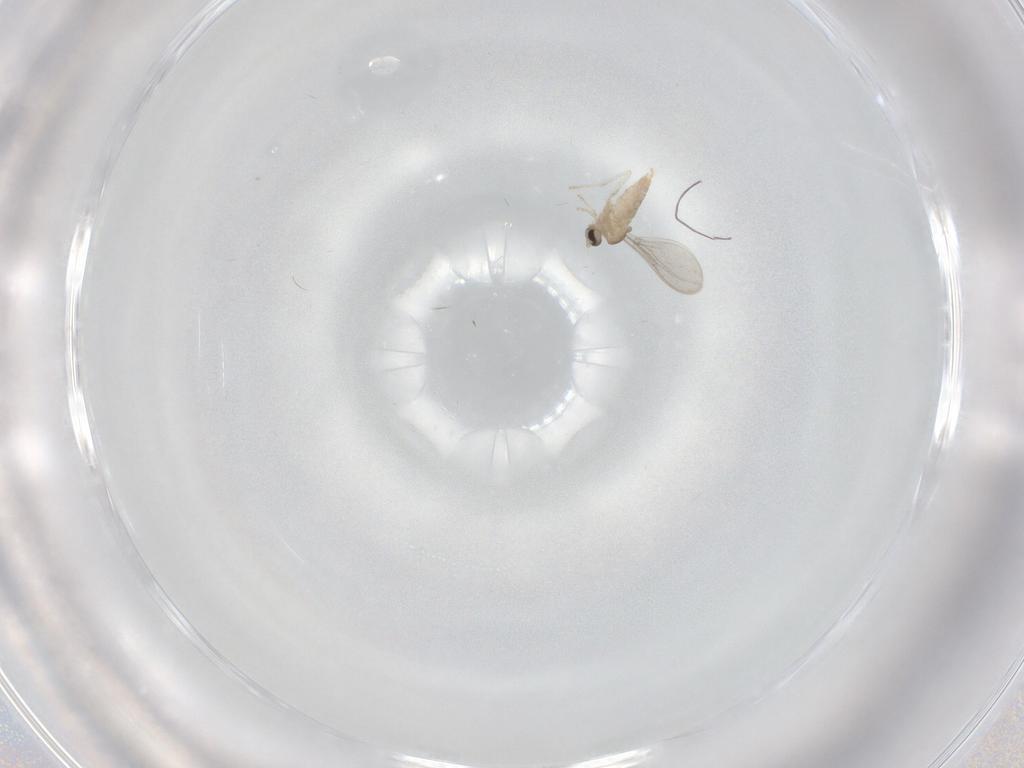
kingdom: Animalia
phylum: Arthropoda
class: Insecta
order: Diptera
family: Cecidomyiidae
